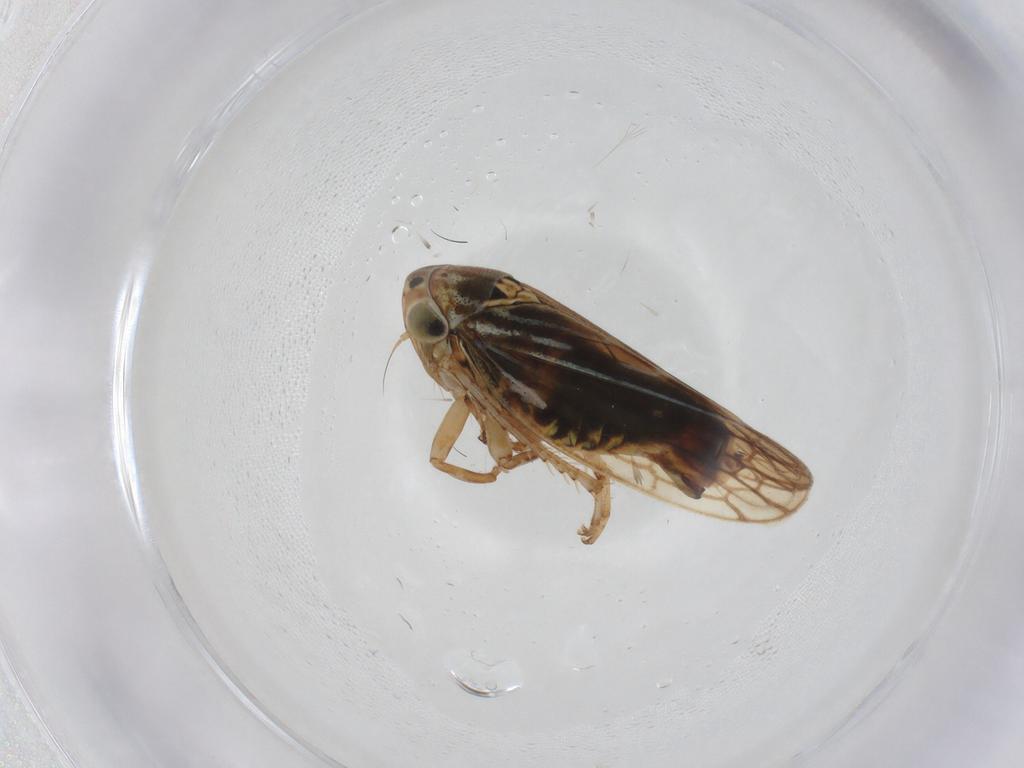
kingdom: Animalia
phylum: Arthropoda
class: Insecta
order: Hemiptera
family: Cicadellidae
